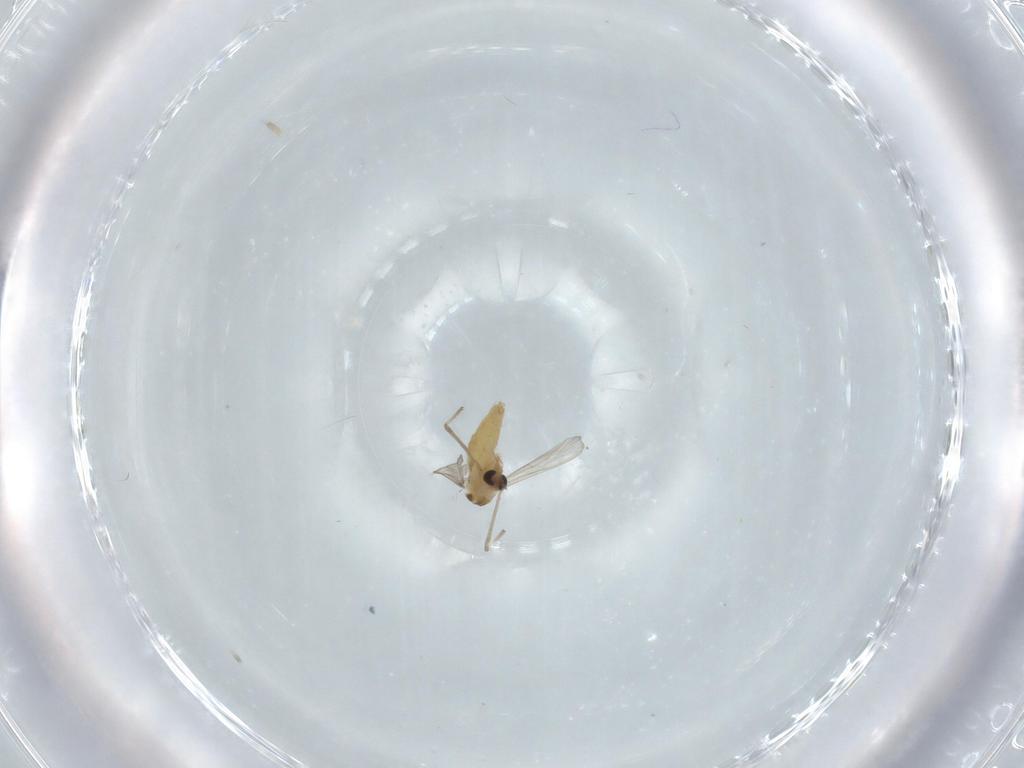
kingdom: Animalia
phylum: Arthropoda
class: Insecta
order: Diptera
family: Chironomidae
